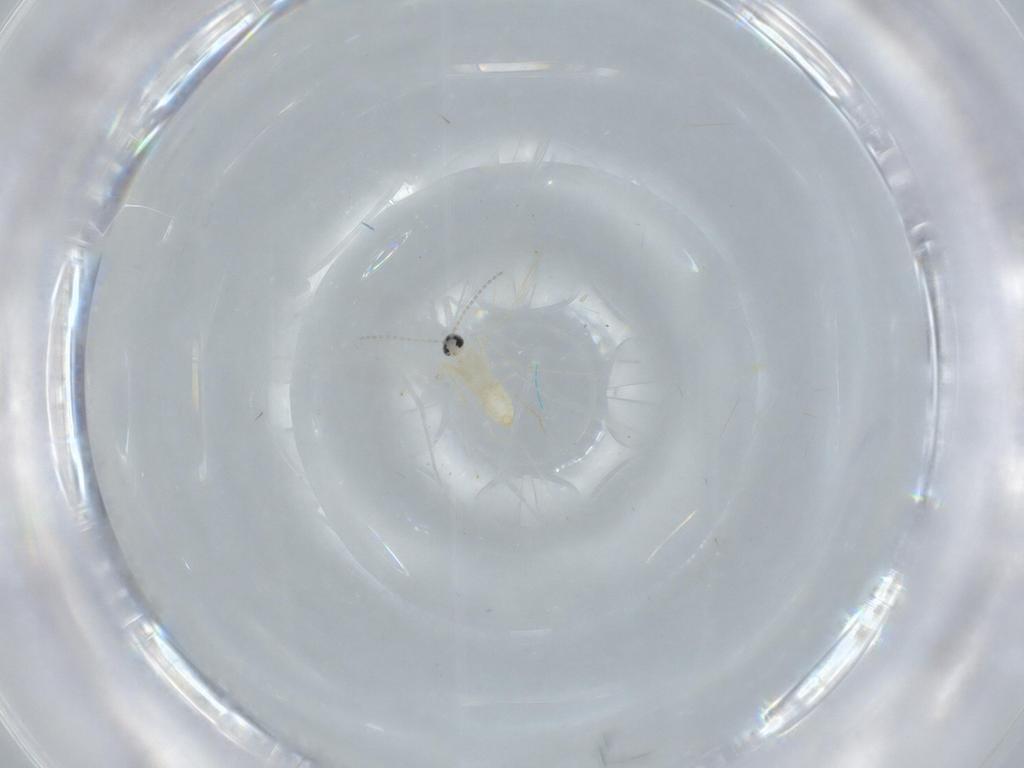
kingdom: Animalia
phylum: Arthropoda
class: Insecta
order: Diptera
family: Cecidomyiidae
